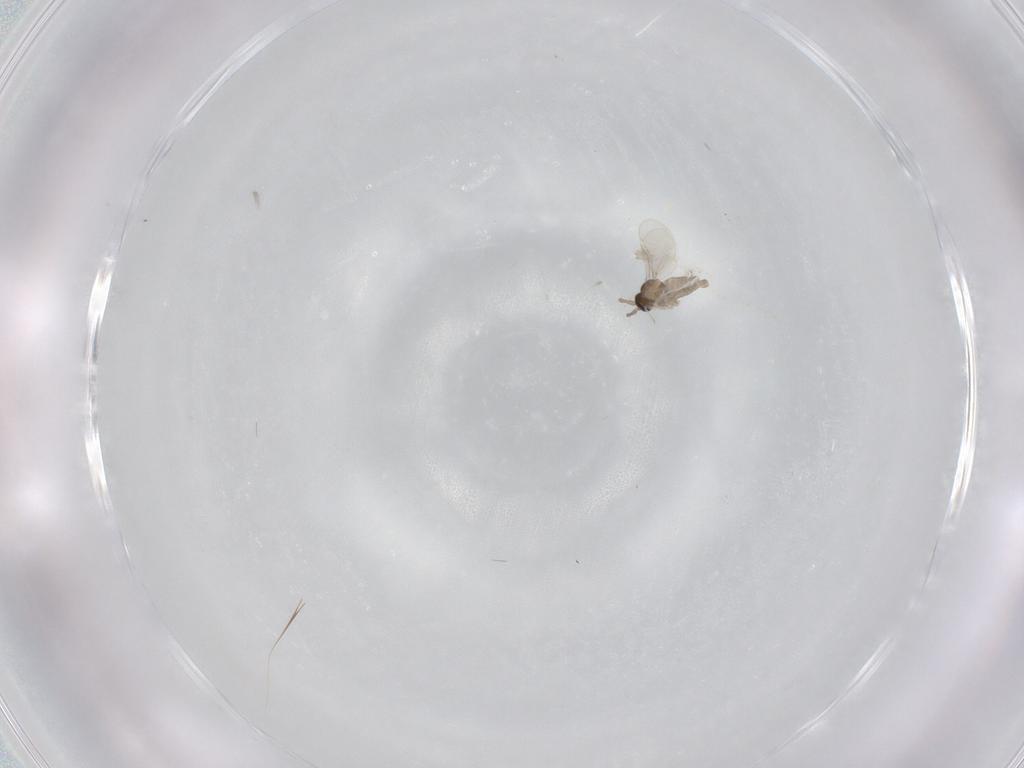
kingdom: Animalia
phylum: Arthropoda
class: Insecta
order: Diptera
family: Cecidomyiidae
